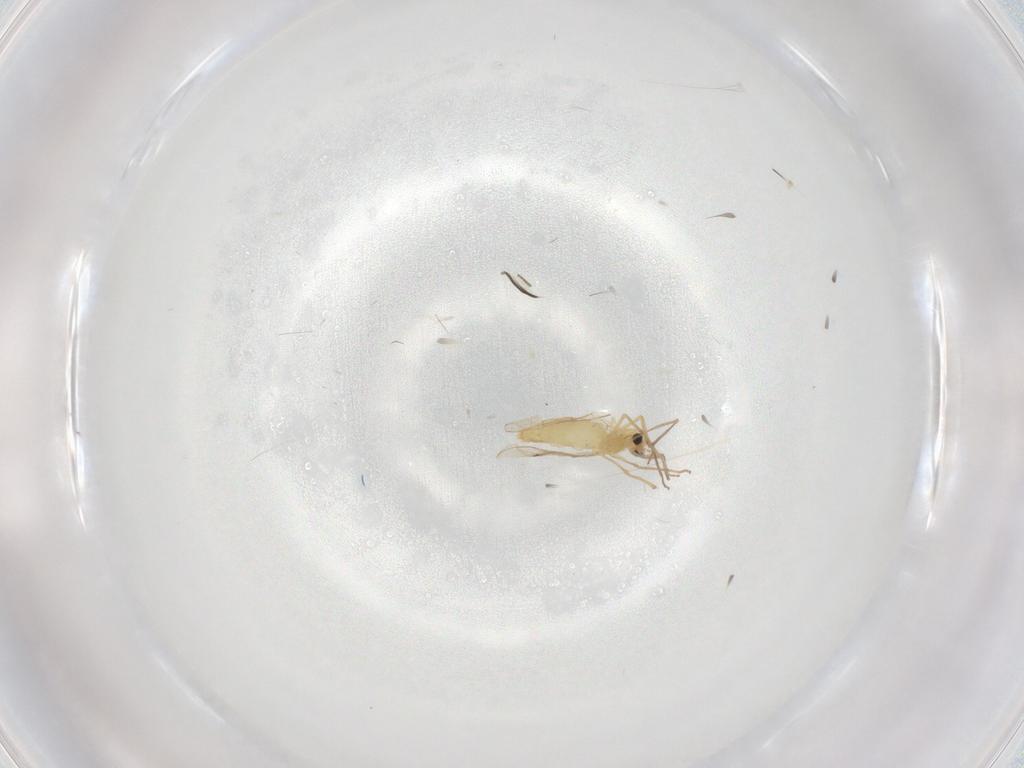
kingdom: Animalia
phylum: Arthropoda
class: Insecta
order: Diptera
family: Chironomidae
